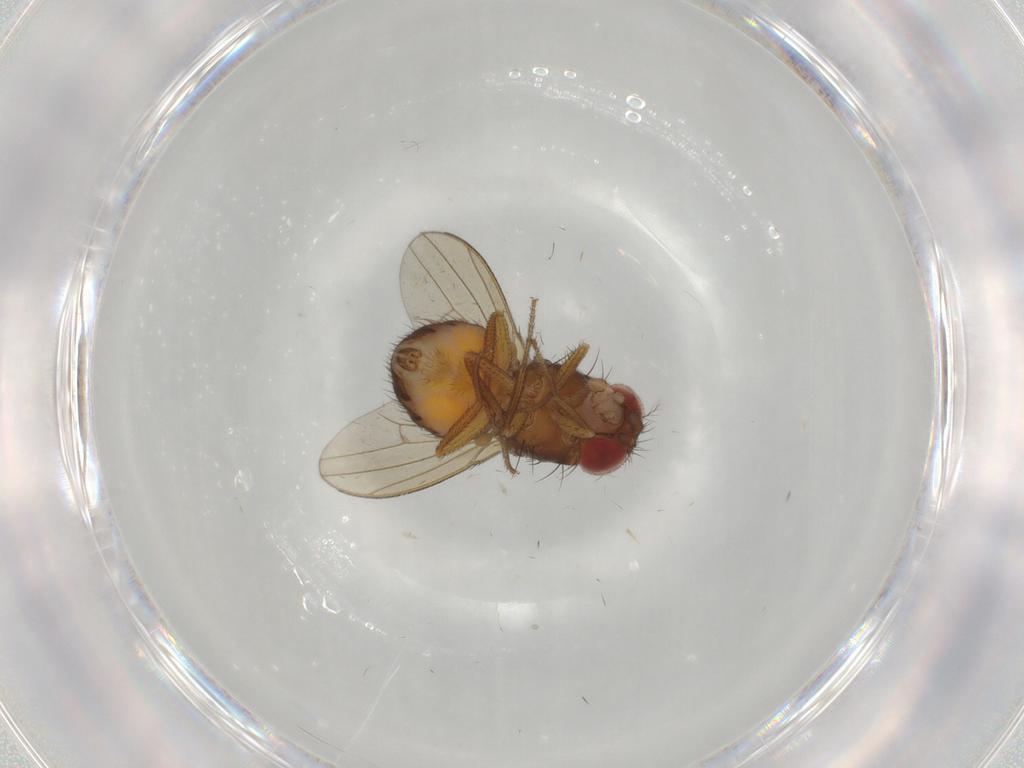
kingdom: Animalia
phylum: Arthropoda
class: Insecta
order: Diptera
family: Drosophilidae
